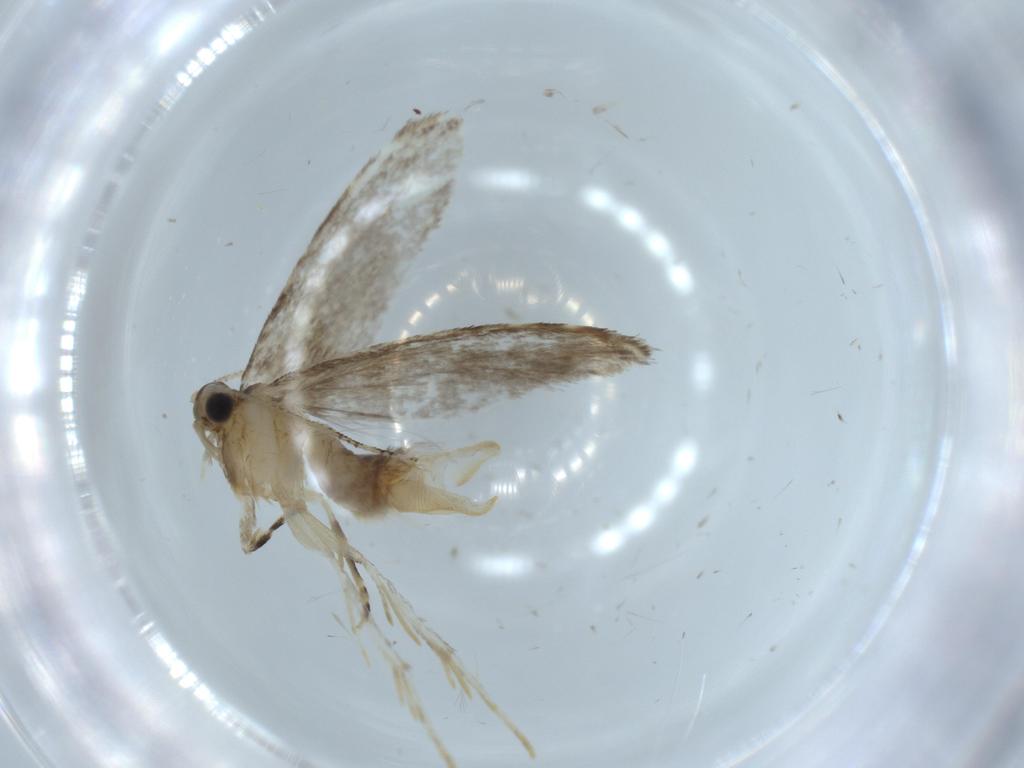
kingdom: Animalia
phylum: Arthropoda
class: Insecta
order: Lepidoptera
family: Tineidae
